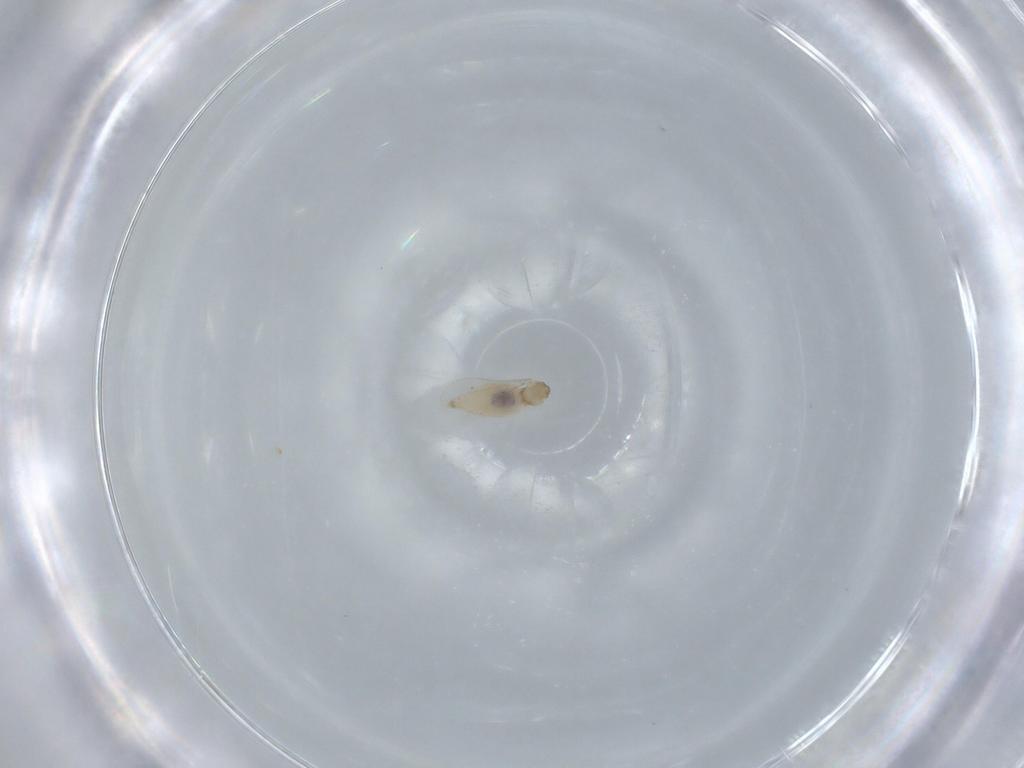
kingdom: Animalia
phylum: Arthropoda
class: Insecta
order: Diptera
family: Cecidomyiidae
